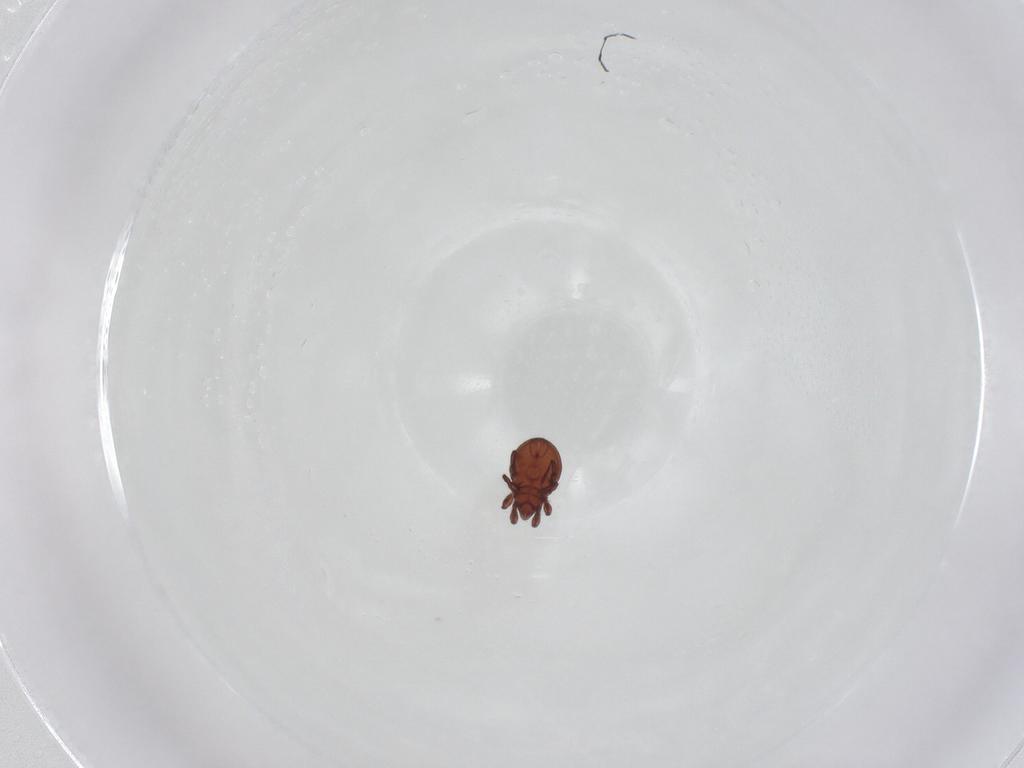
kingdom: Animalia
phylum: Arthropoda
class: Arachnida
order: Sarcoptiformes
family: Eremaeidae
